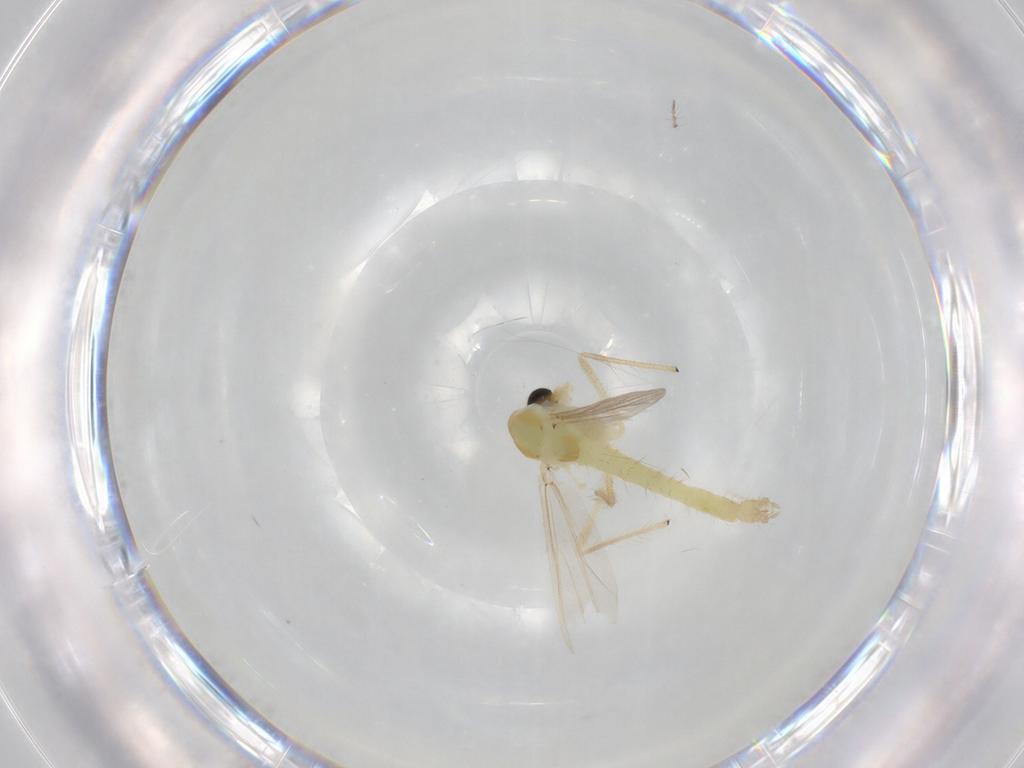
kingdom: Animalia
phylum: Arthropoda
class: Insecta
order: Diptera
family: Chironomidae
